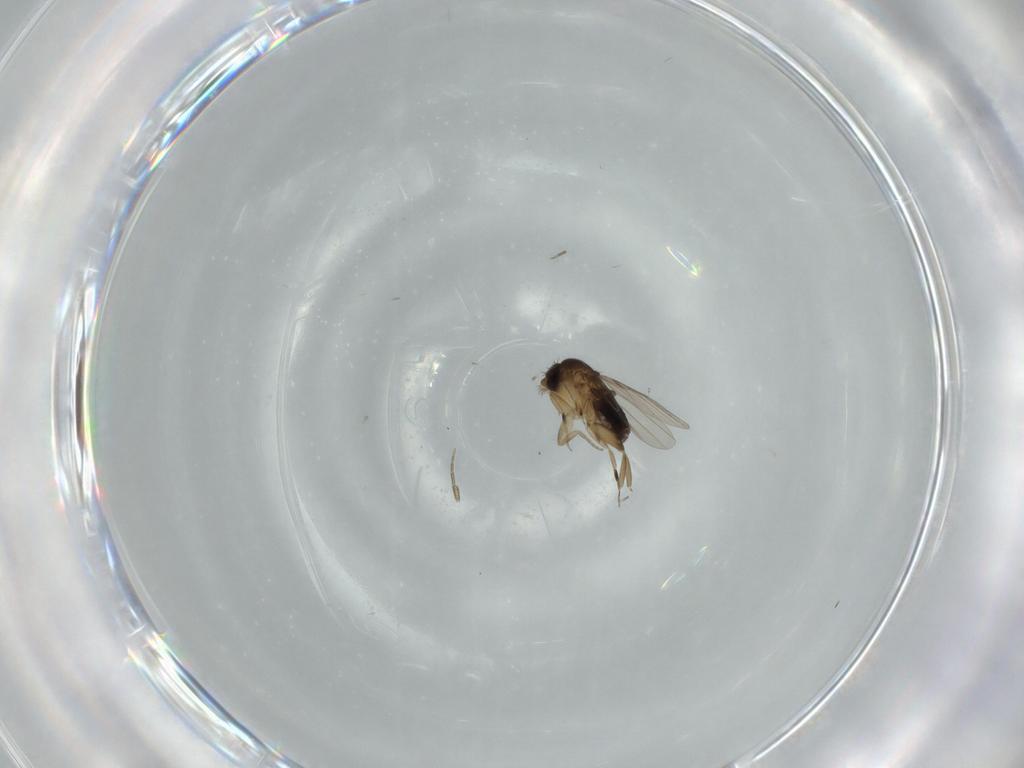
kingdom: Animalia
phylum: Arthropoda
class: Insecta
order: Diptera
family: Phoridae
